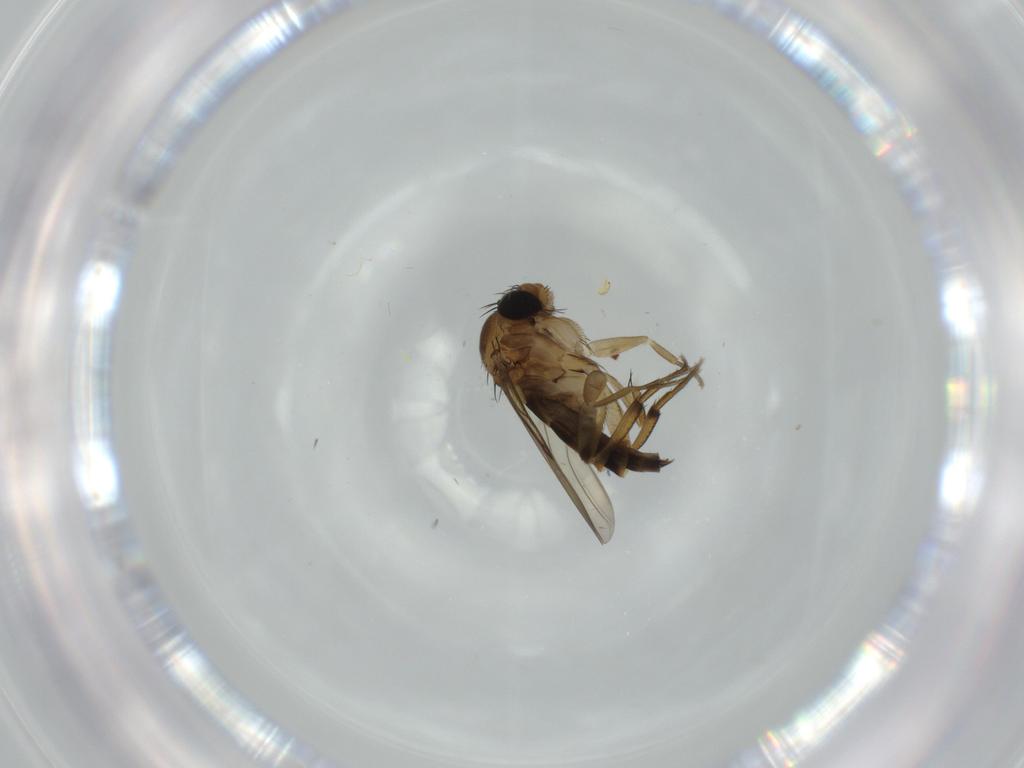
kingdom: Animalia
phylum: Arthropoda
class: Insecta
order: Diptera
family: Phoridae
